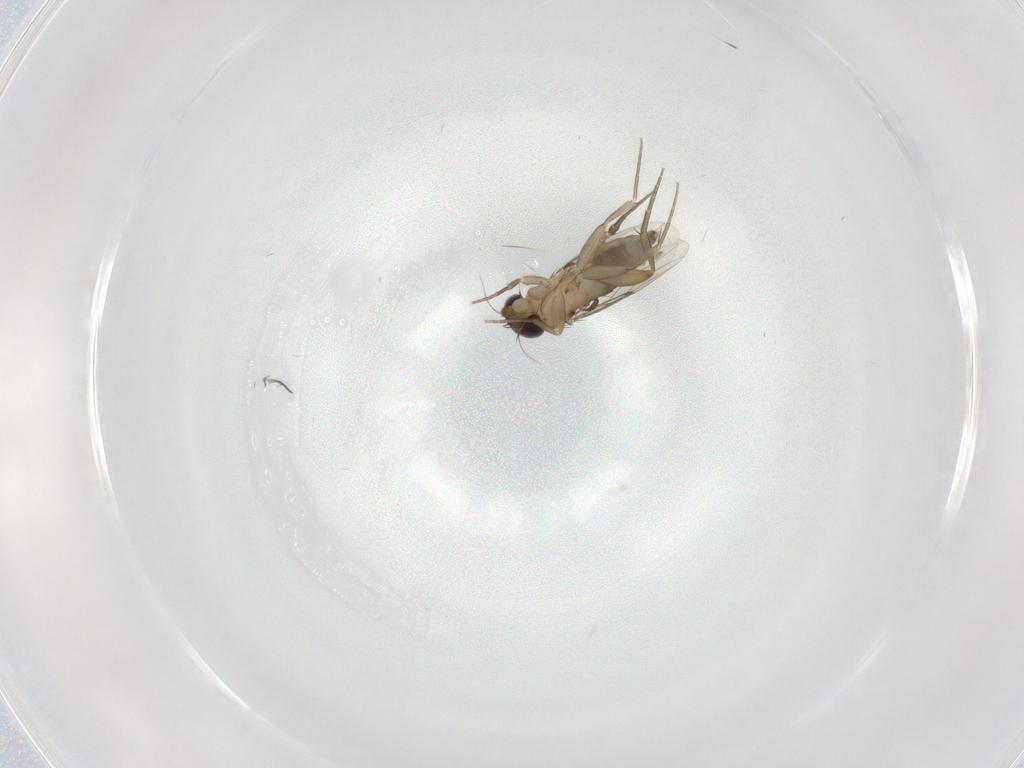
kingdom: Animalia
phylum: Arthropoda
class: Insecta
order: Diptera
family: Phoridae
